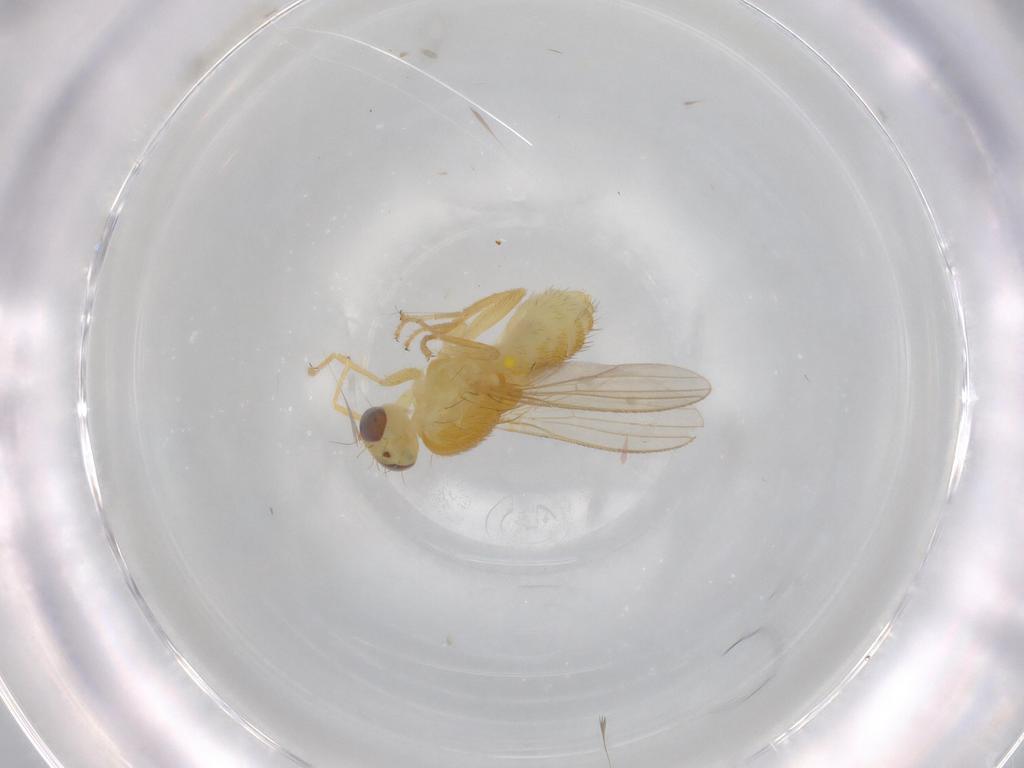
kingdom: Animalia
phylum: Arthropoda
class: Insecta
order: Diptera
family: Chyromyidae
